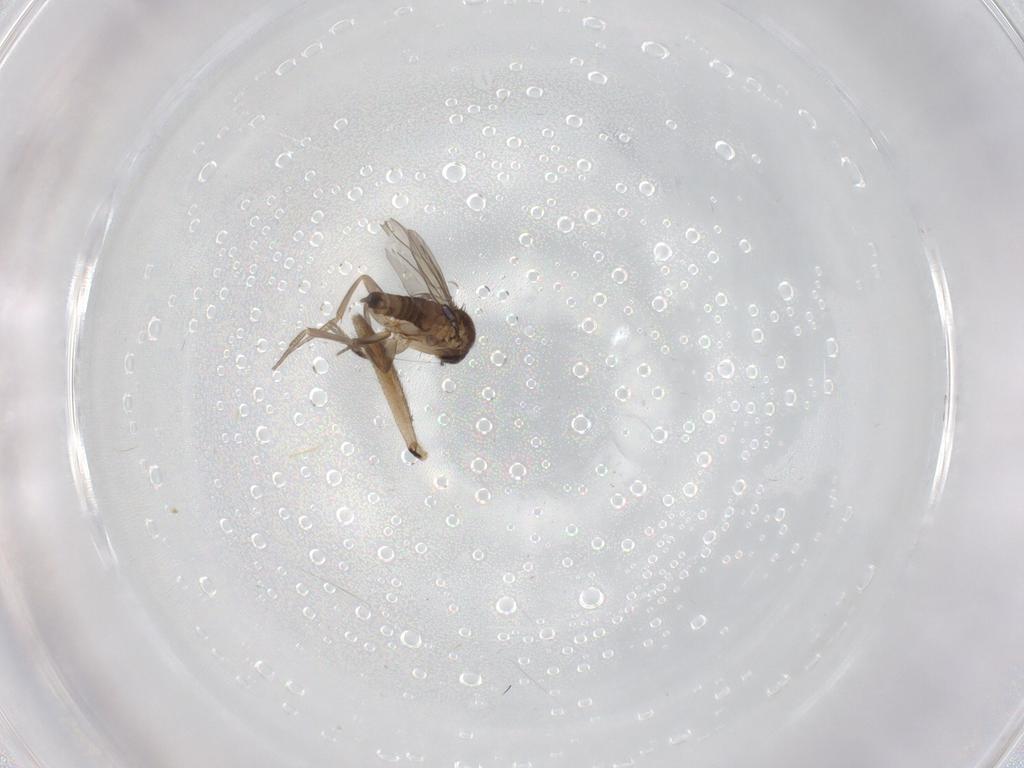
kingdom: Animalia
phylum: Arthropoda
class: Insecta
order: Diptera
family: Phoridae
